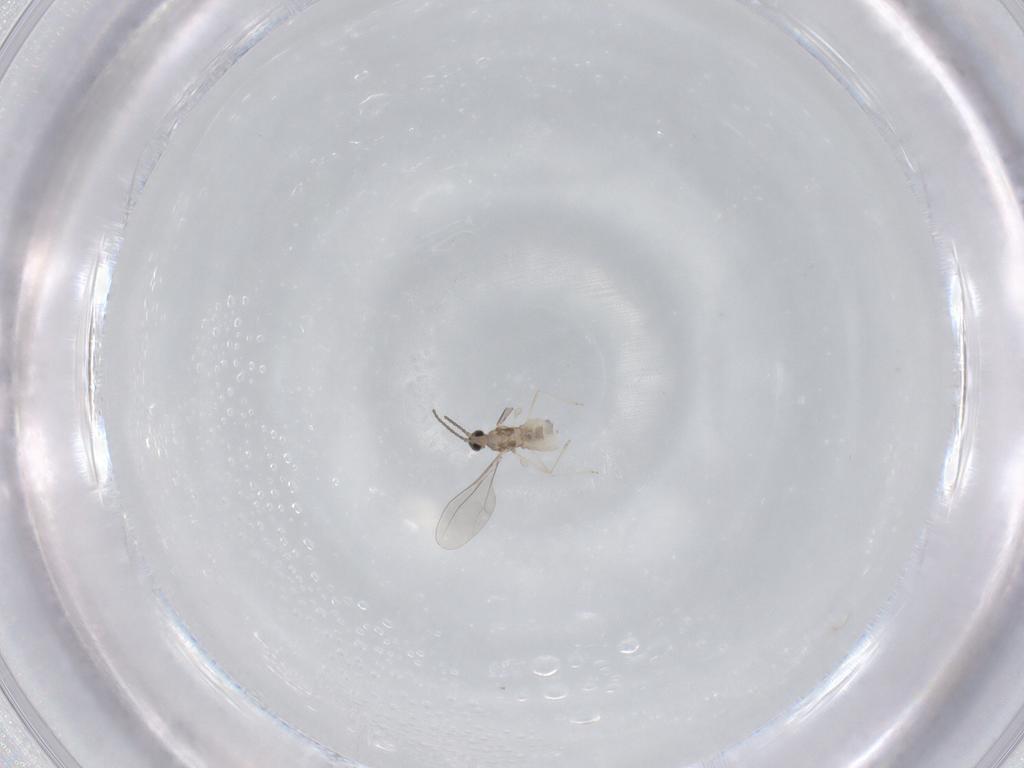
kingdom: Animalia
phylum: Arthropoda
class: Insecta
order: Diptera
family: Cecidomyiidae
